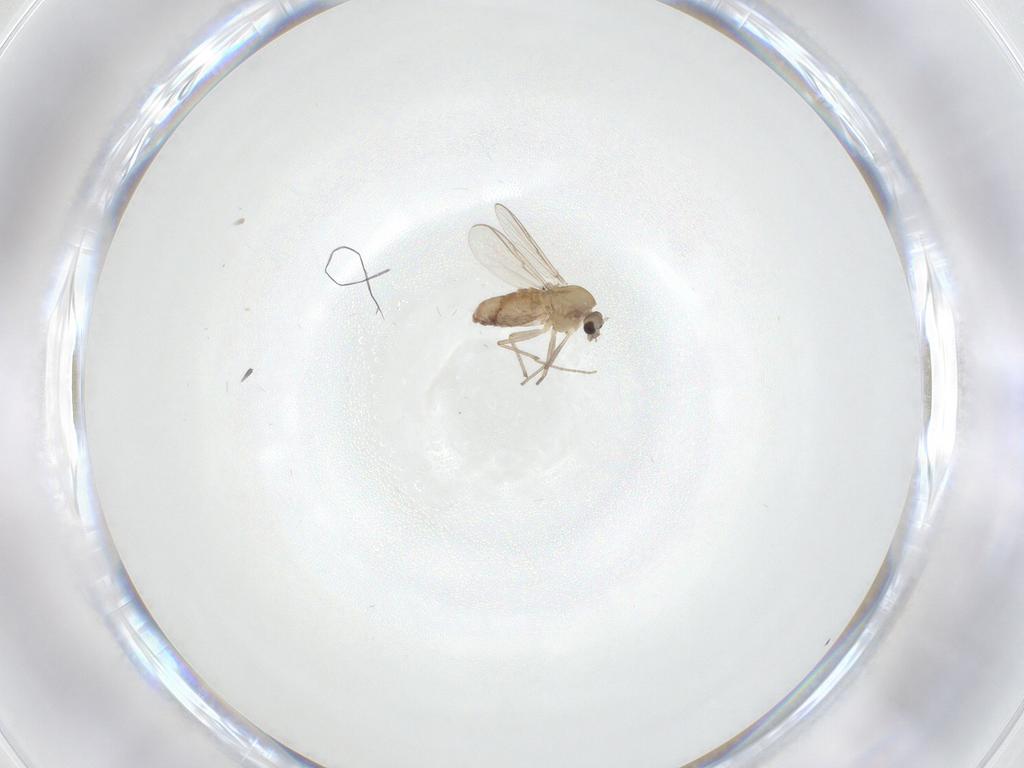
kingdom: Animalia
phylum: Arthropoda
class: Insecta
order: Diptera
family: Chironomidae
